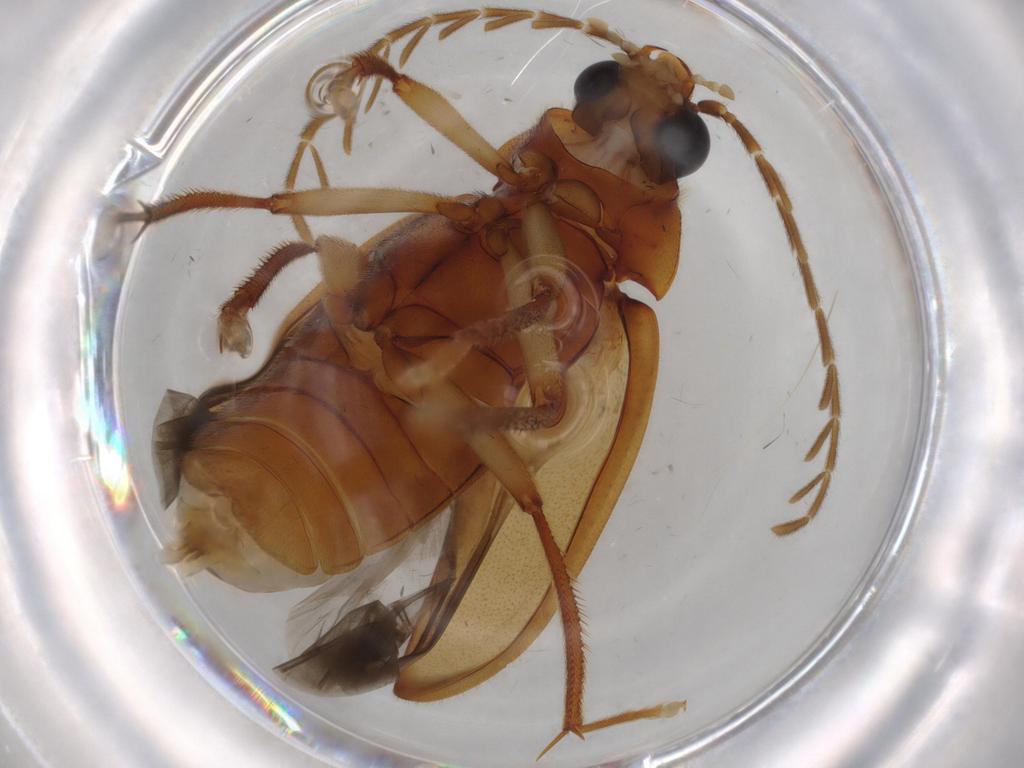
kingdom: Animalia
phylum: Arthropoda
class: Insecta
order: Coleoptera
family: Ptilodactylidae
